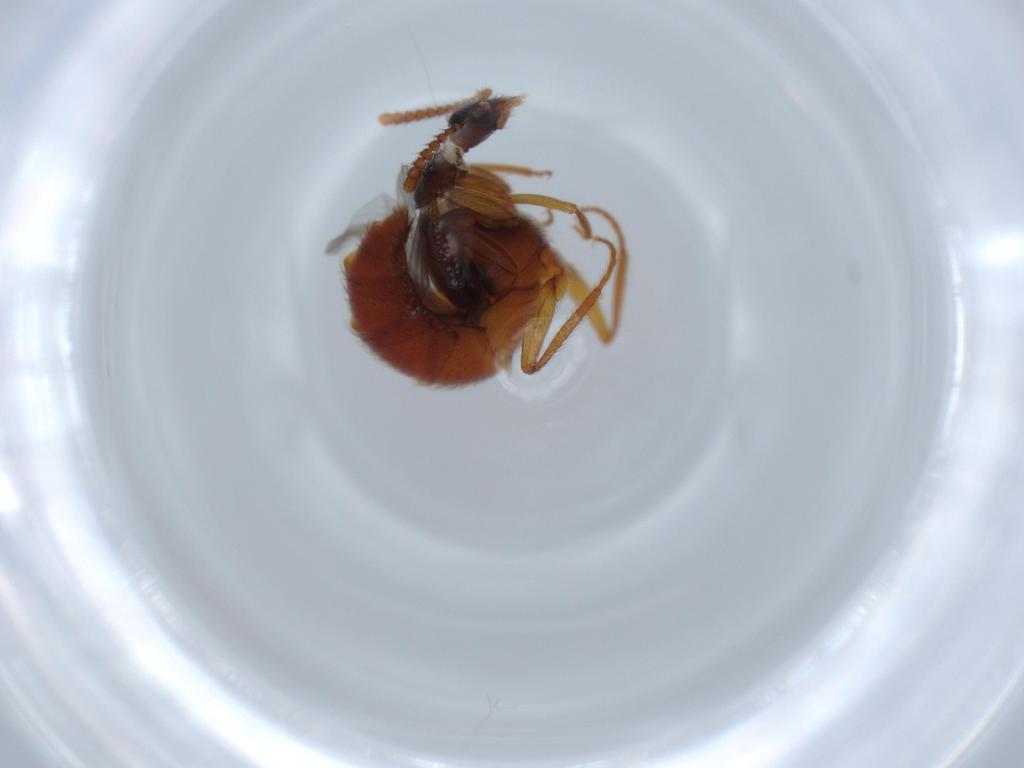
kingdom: Animalia
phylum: Arthropoda
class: Insecta
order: Coleoptera
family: Staphylinidae
